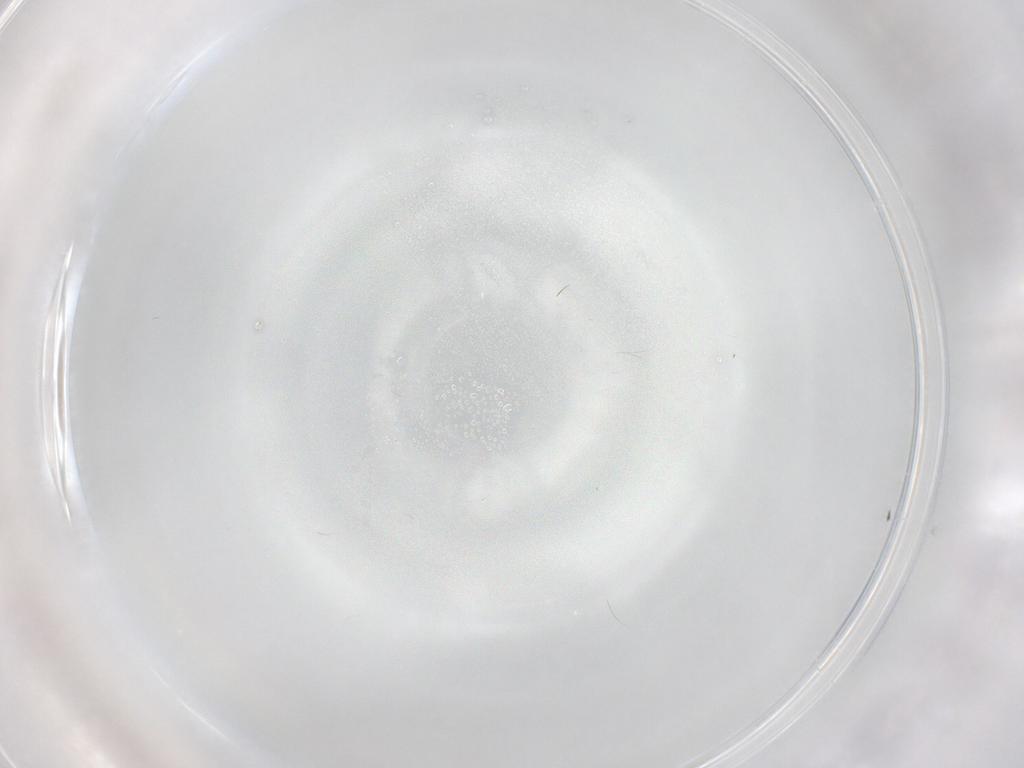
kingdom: Animalia
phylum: Arthropoda
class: Insecta
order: Diptera
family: Limoniidae
